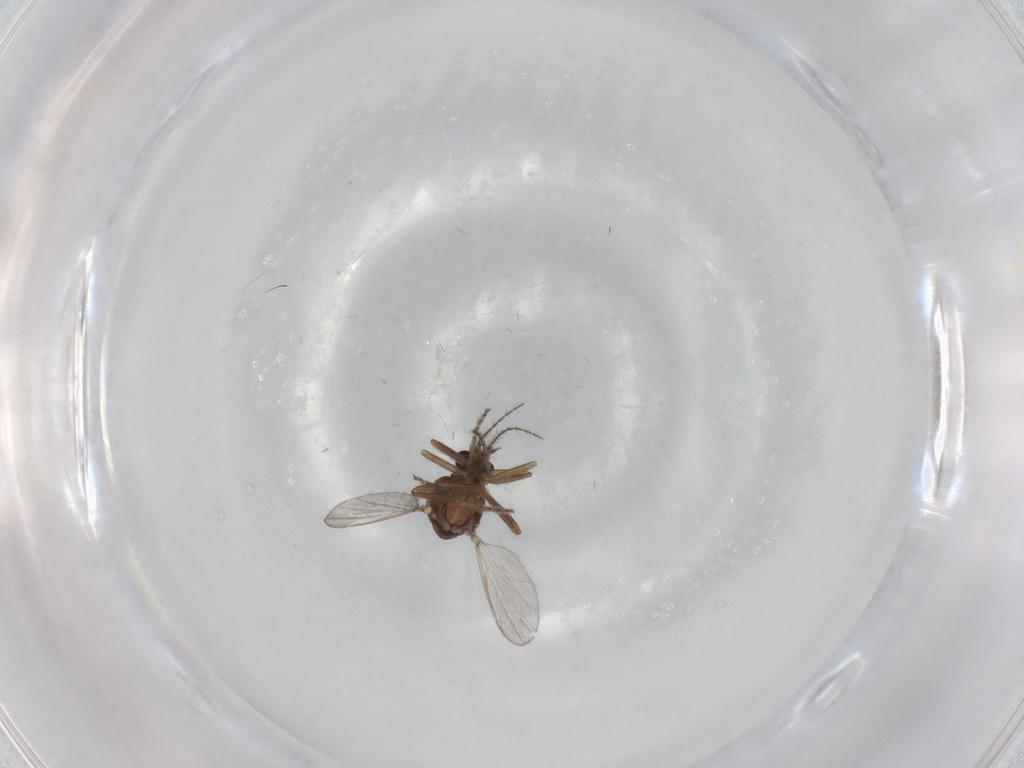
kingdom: Animalia
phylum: Arthropoda
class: Insecta
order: Diptera
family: Ceratopogonidae
